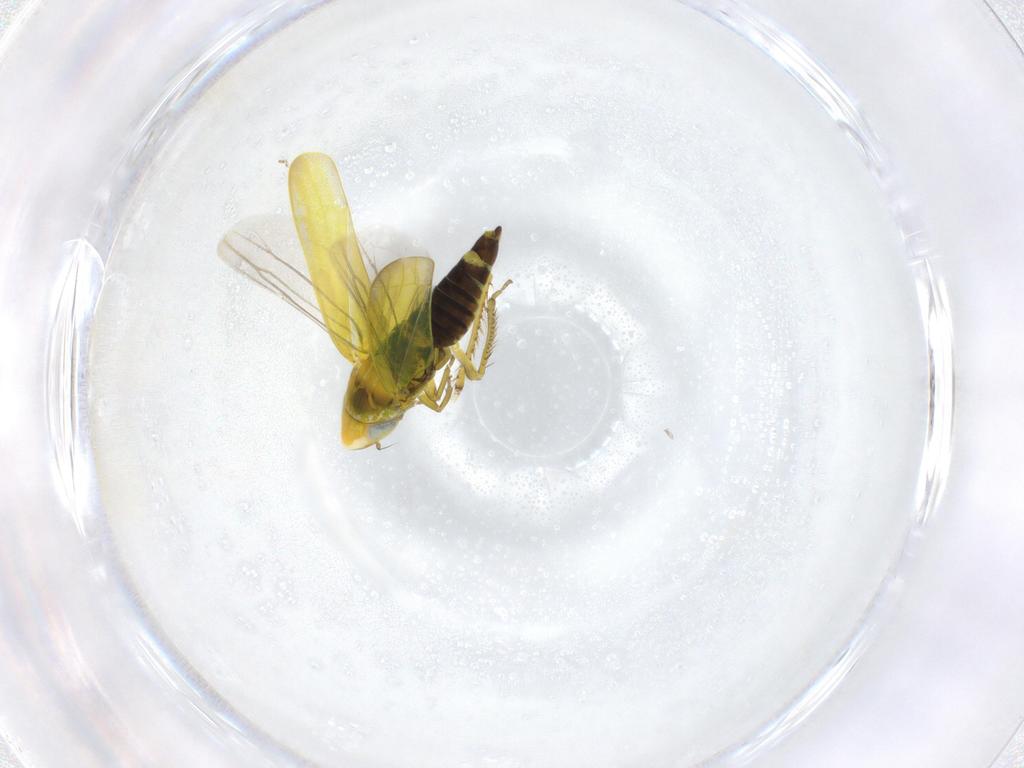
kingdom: Animalia
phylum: Arthropoda
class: Insecta
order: Hemiptera
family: Cicadellidae
